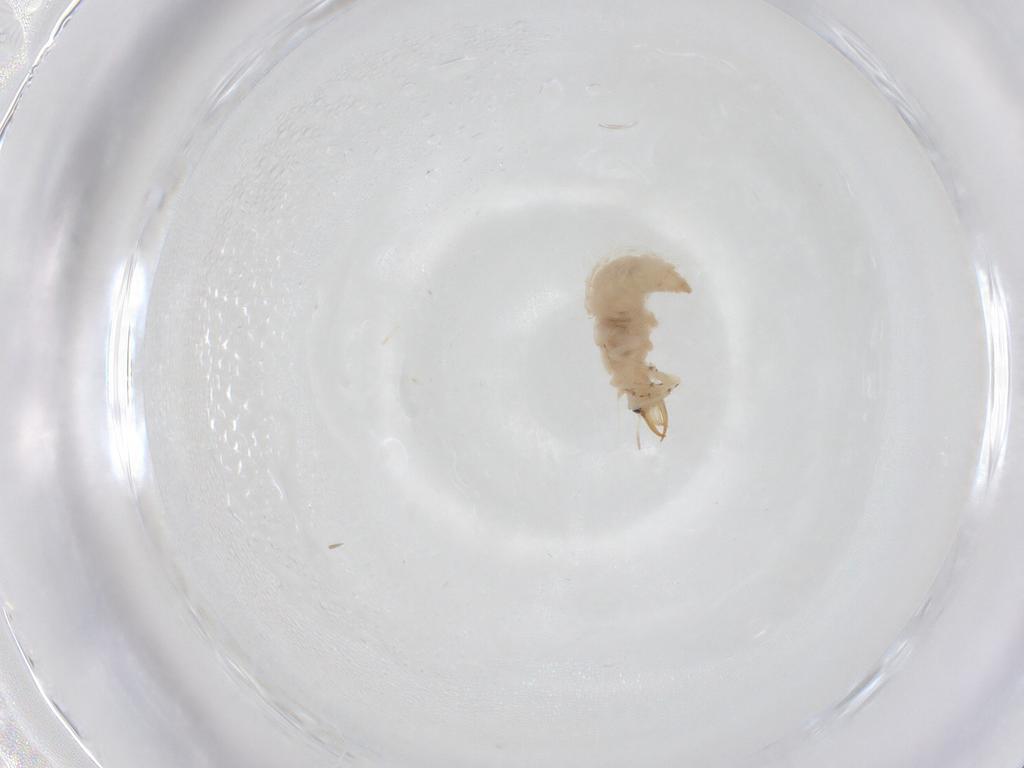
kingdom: Animalia
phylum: Arthropoda
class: Insecta
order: Neuroptera
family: Chrysopidae
